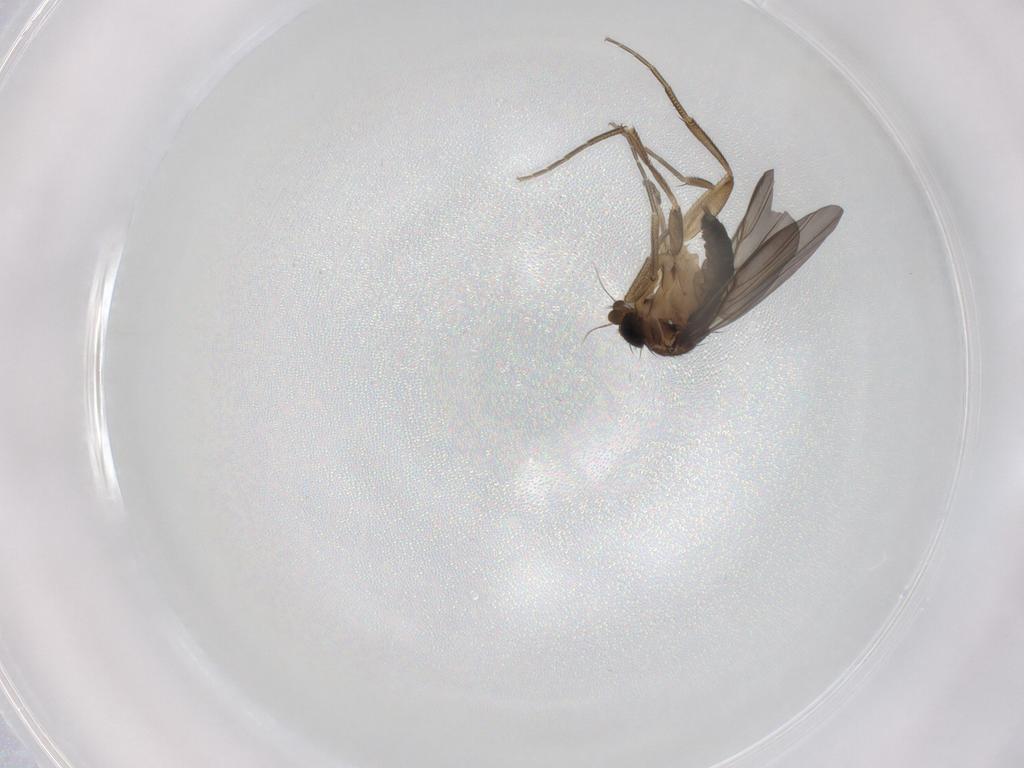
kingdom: Animalia
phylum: Arthropoda
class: Insecta
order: Diptera
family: Phoridae
